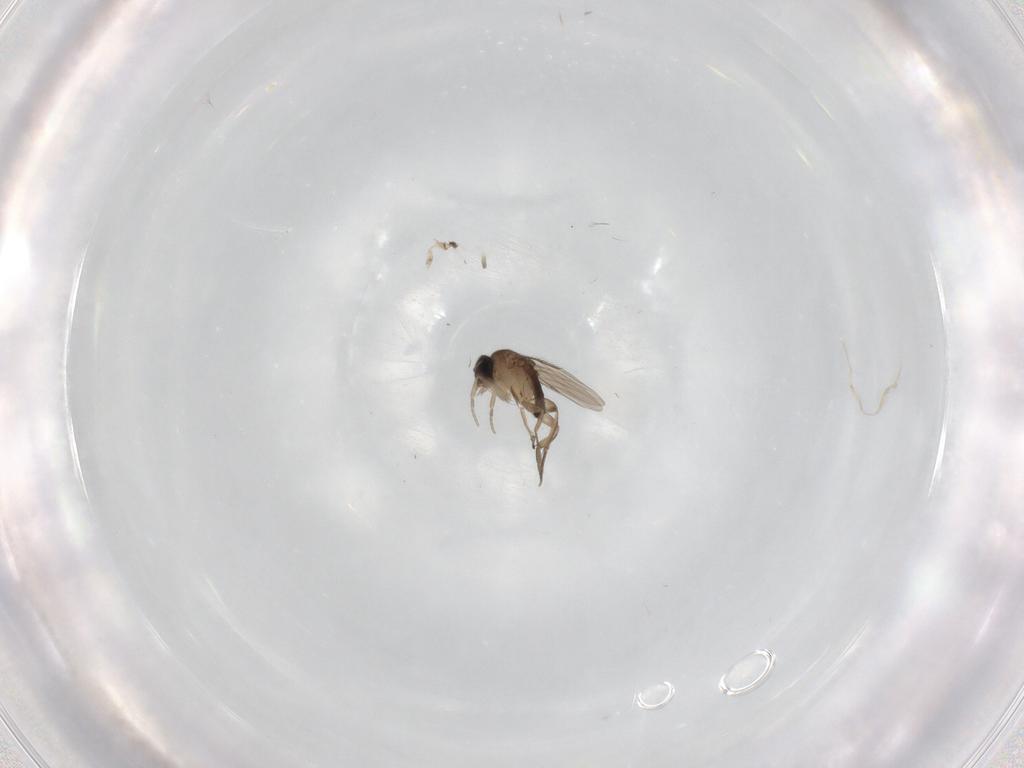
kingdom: Animalia
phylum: Arthropoda
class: Insecta
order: Diptera
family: Phoridae
